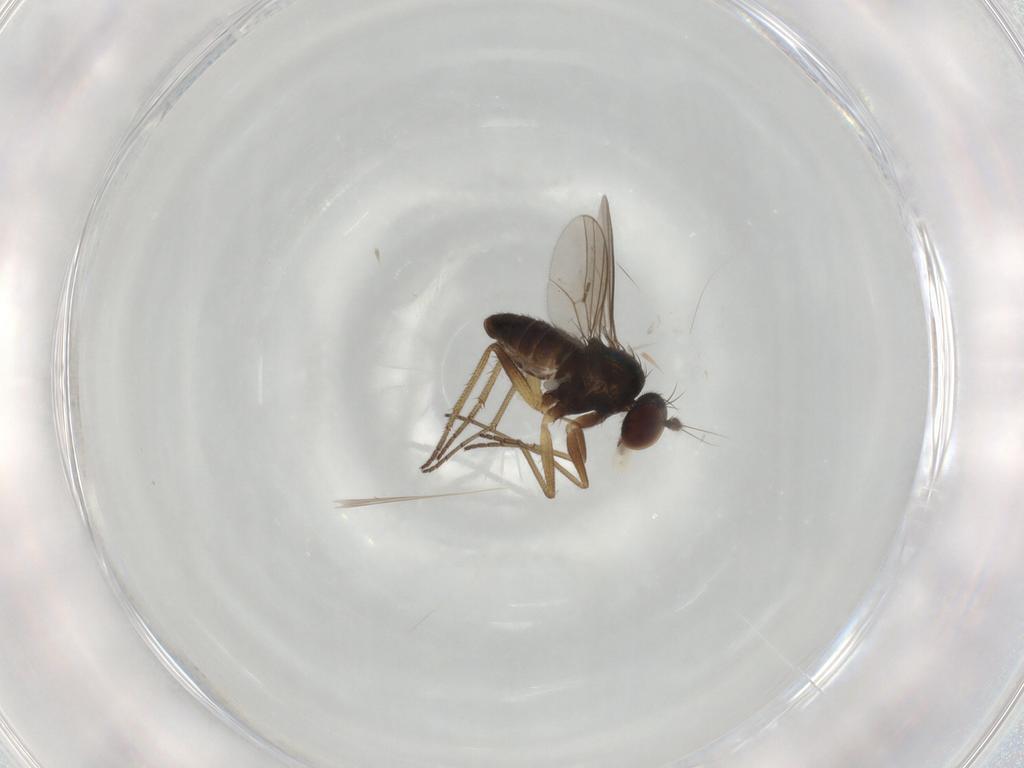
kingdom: Animalia
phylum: Arthropoda
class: Insecta
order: Diptera
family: Dolichopodidae
